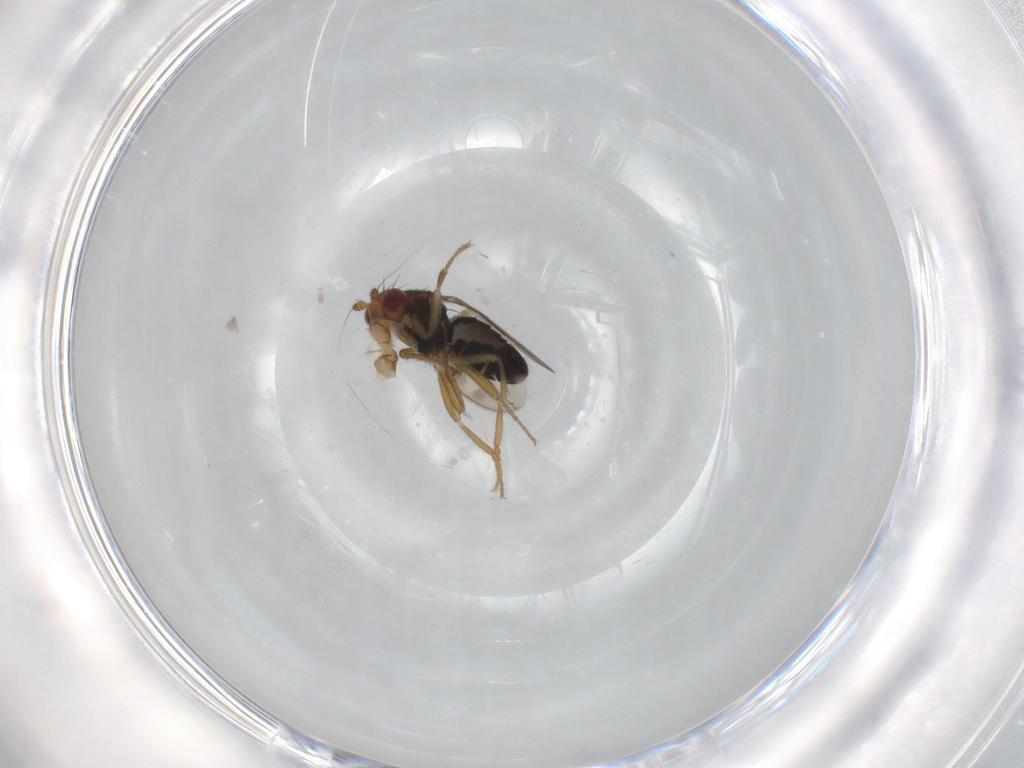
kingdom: Animalia
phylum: Arthropoda
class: Insecta
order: Diptera
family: Sphaeroceridae
